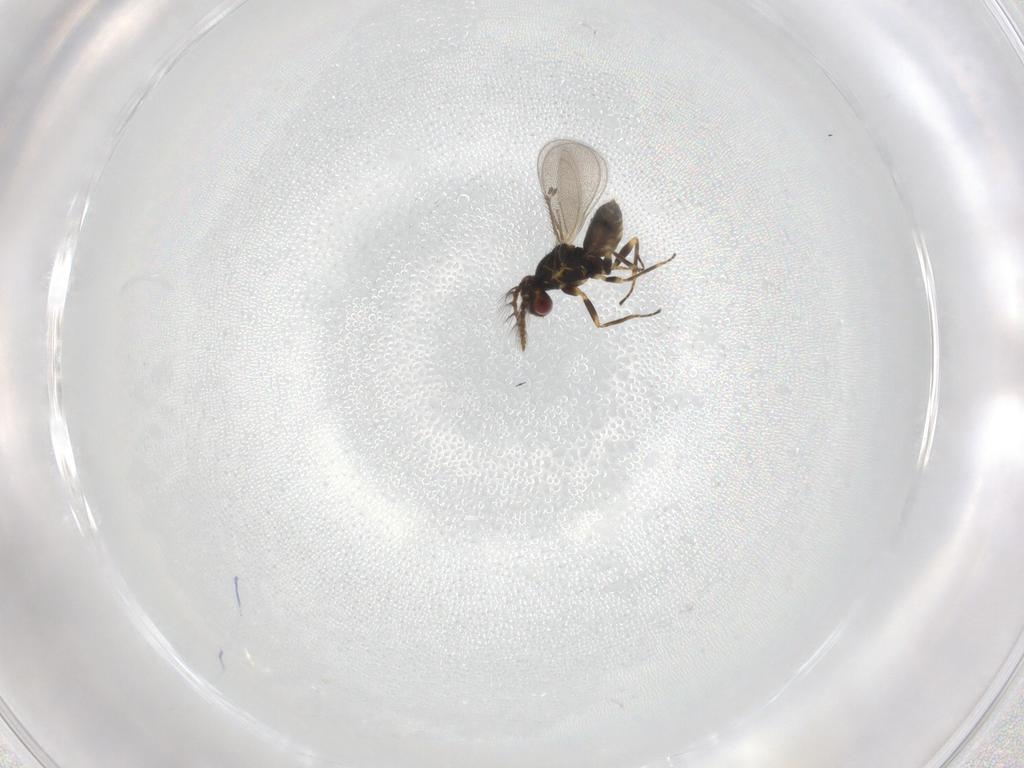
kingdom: Animalia
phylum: Arthropoda
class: Insecta
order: Hymenoptera
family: Eulophidae
